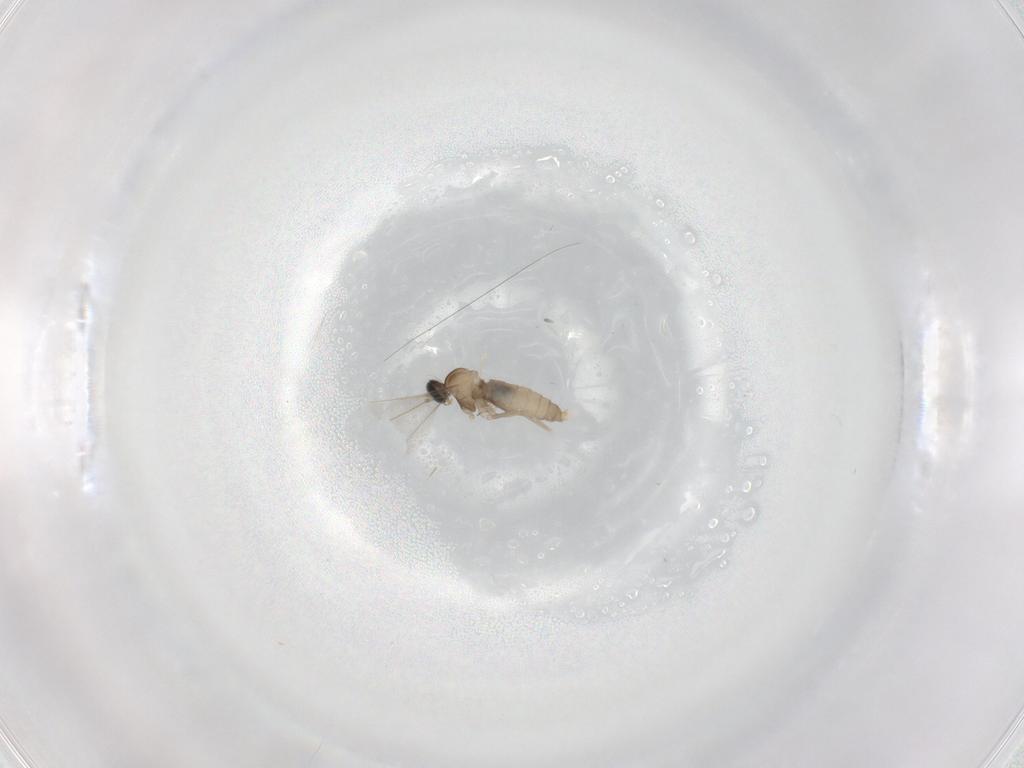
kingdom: Animalia
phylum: Arthropoda
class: Insecta
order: Diptera
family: Cecidomyiidae
